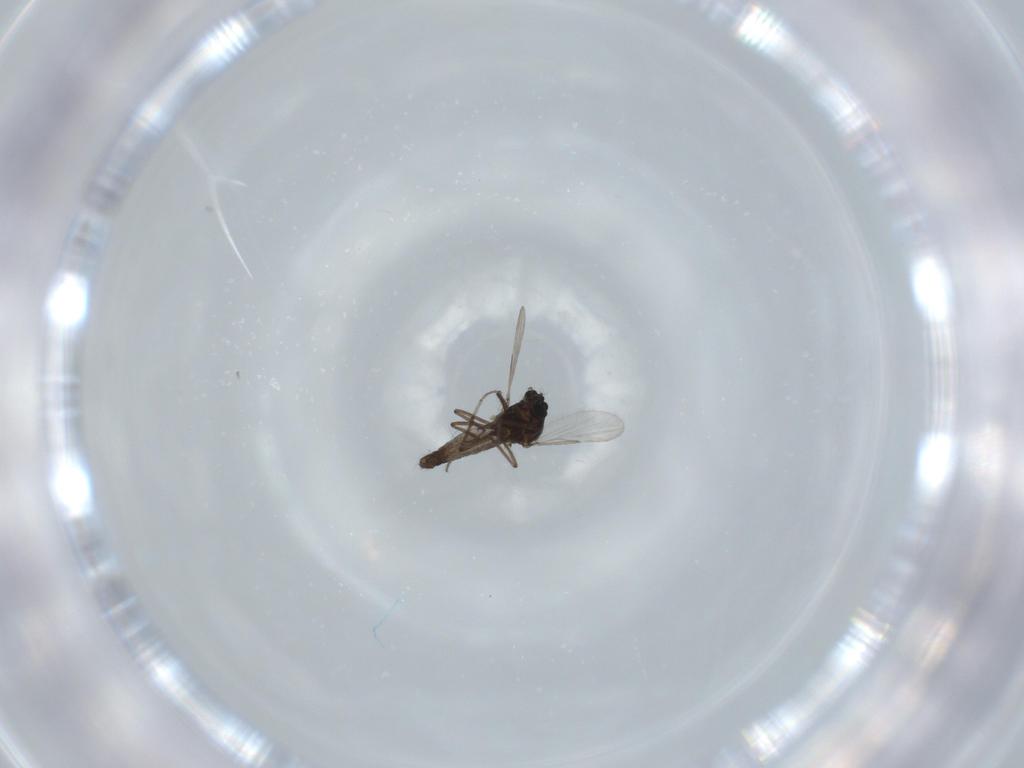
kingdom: Animalia
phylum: Arthropoda
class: Insecta
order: Diptera
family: Ceratopogonidae
